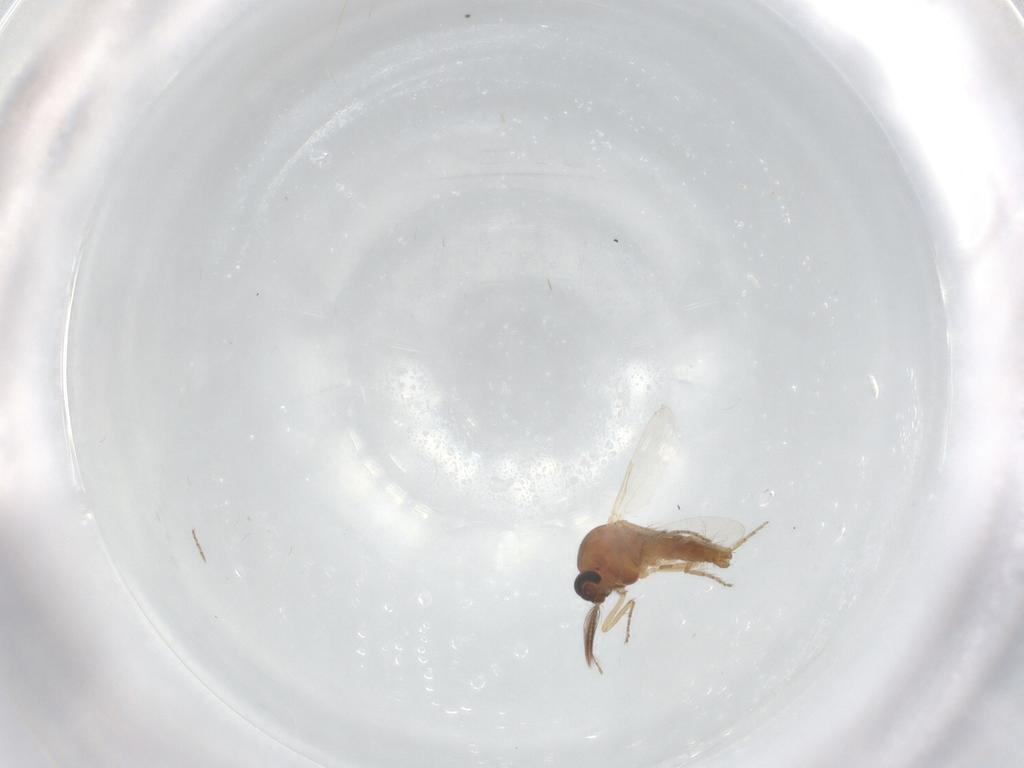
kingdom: Animalia
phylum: Arthropoda
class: Insecta
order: Diptera
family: Ceratopogonidae
